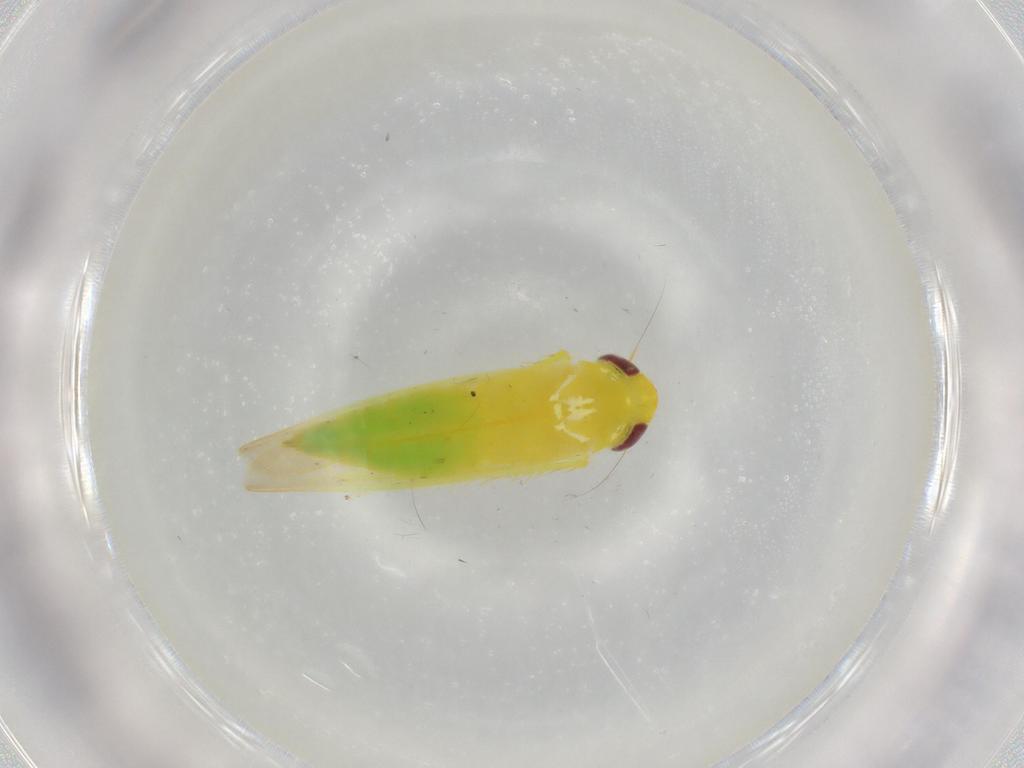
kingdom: Animalia
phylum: Arthropoda
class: Insecta
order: Hemiptera
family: Cicadellidae
